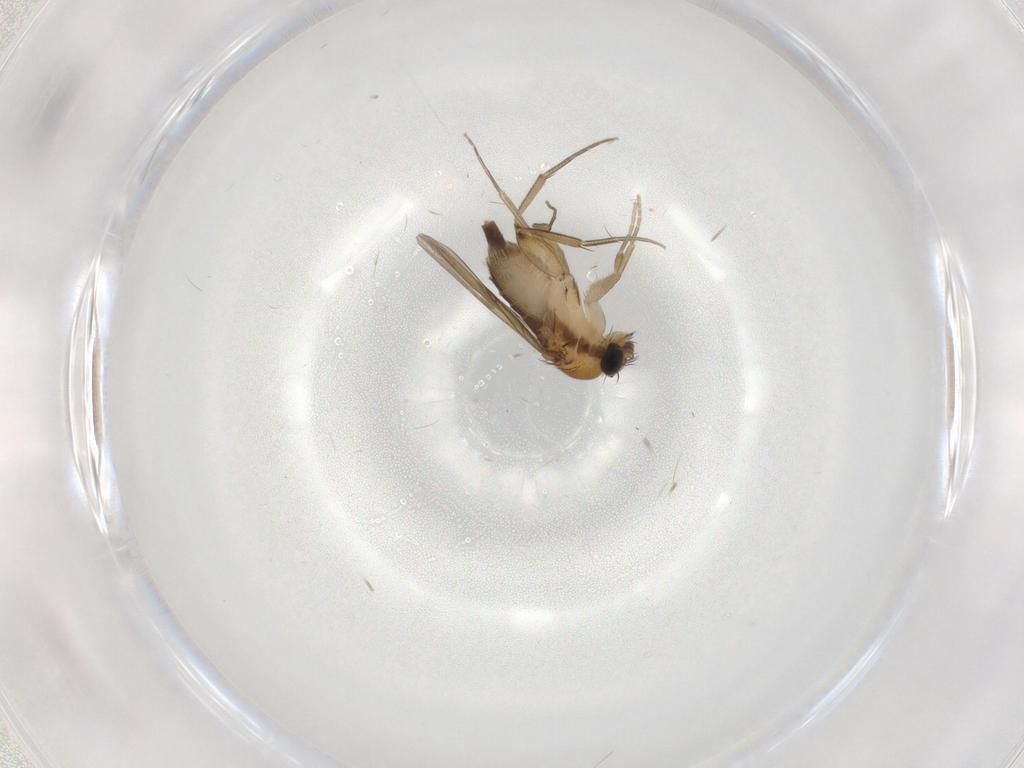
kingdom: Animalia
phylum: Arthropoda
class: Insecta
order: Diptera
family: Phoridae
